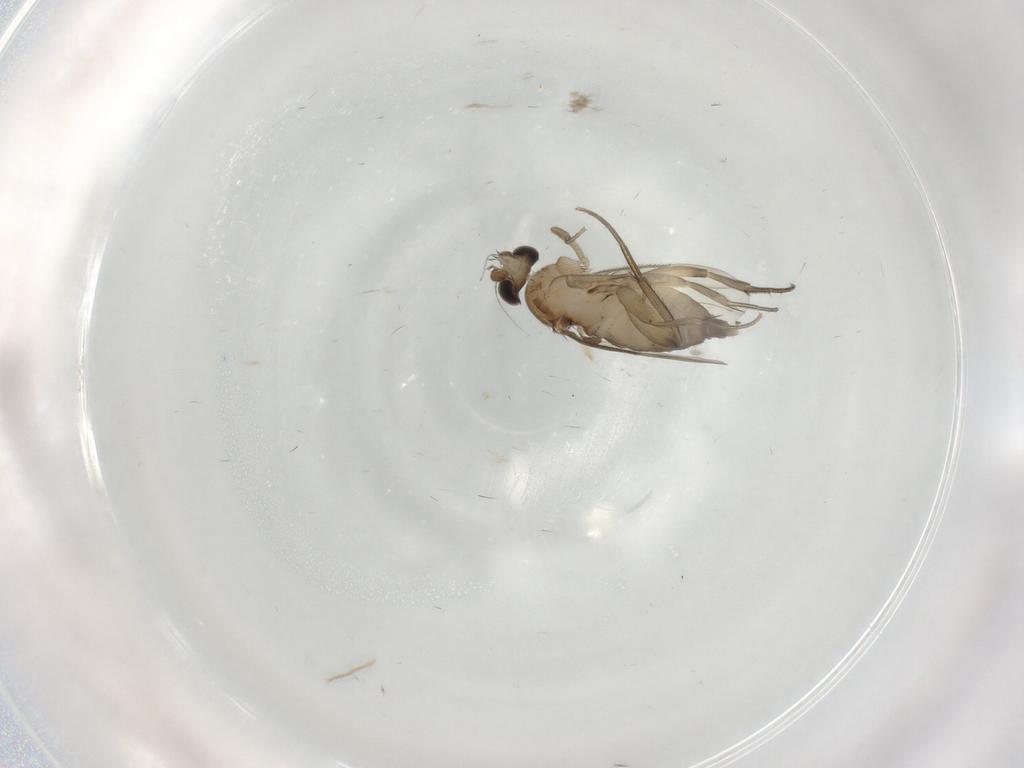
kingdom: Animalia
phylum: Arthropoda
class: Insecta
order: Diptera
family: Phoridae
